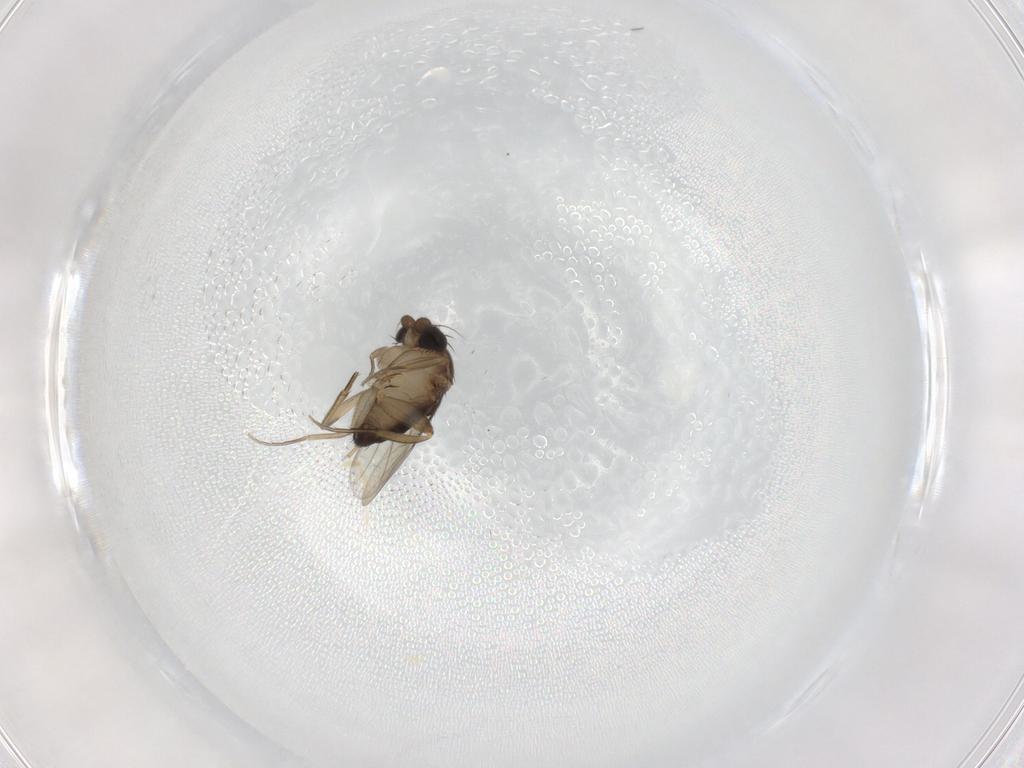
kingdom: Animalia
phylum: Arthropoda
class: Insecta
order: Diptera
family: Phoridae
